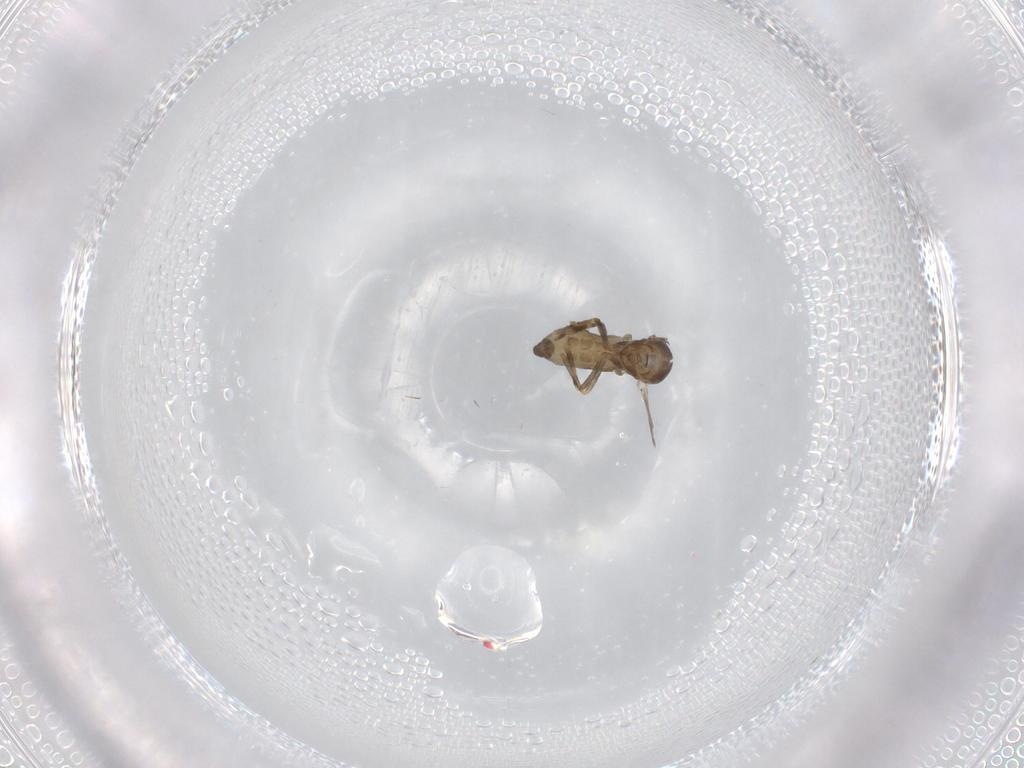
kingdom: Animalia
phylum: Arthropoda
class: Insecta
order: Diptera
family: Ceratopogonidae
